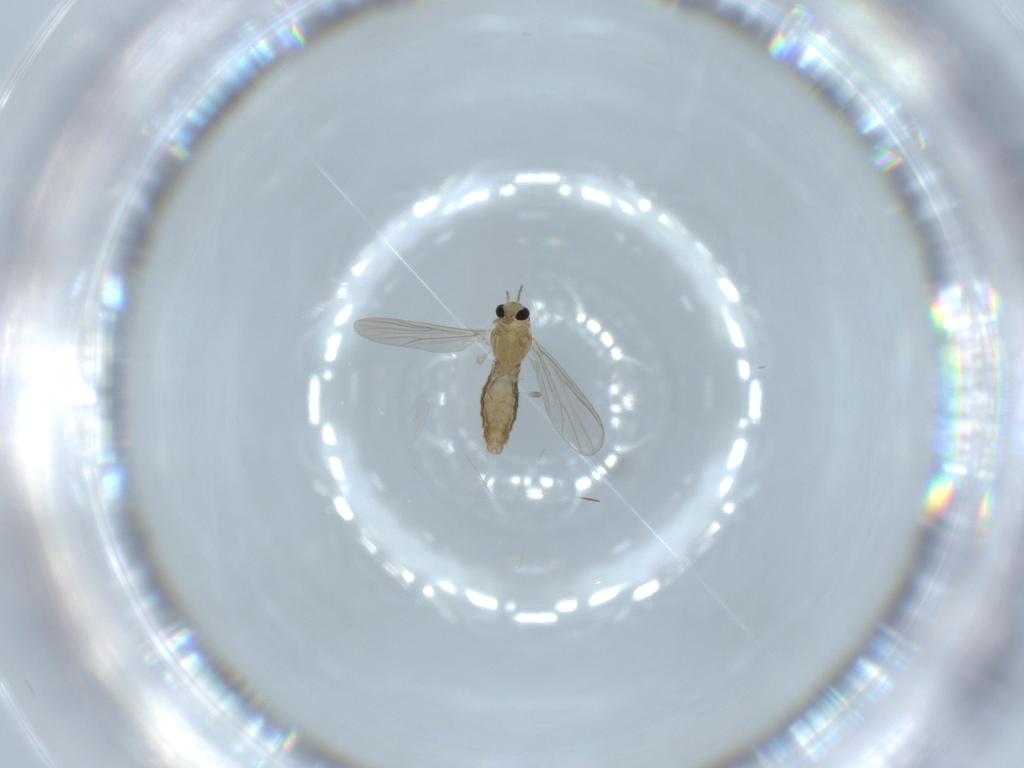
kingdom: Animalia
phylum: Arthropoda
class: Insecta
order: Diptera
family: Chironomidae
